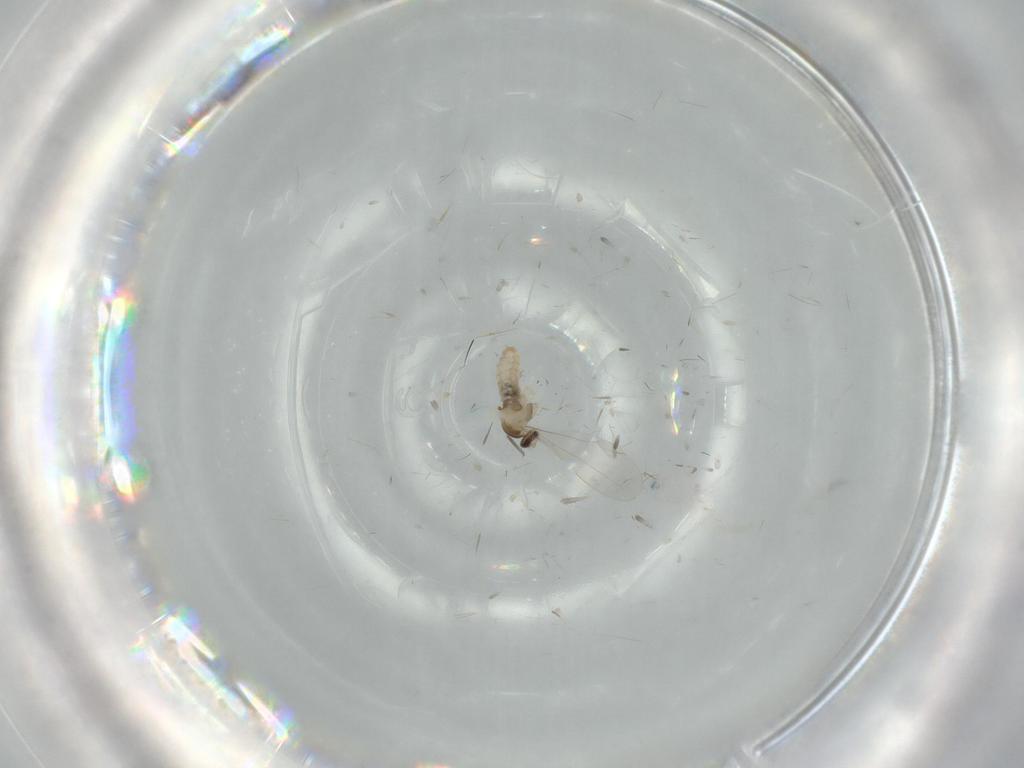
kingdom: Animalia
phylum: Arthropoda
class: Insecta
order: Diptera
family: Cecidomyiidae
